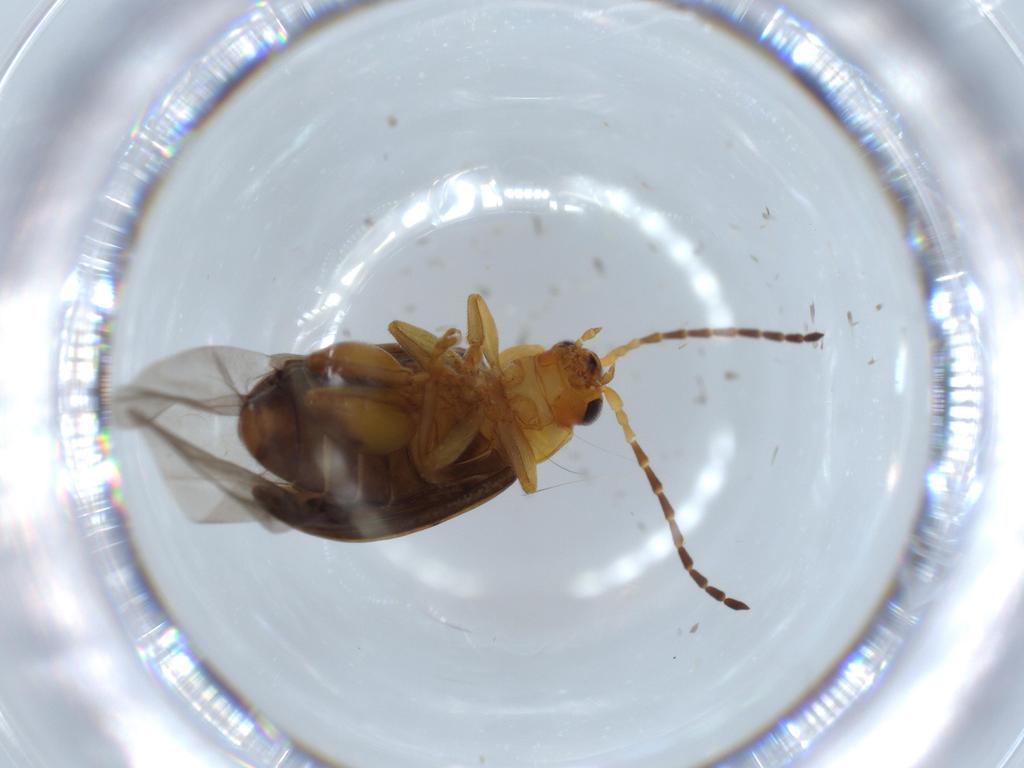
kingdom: Animalia
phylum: Arthropoda
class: Insecta
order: Coleoptera
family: Chrysomelidae
